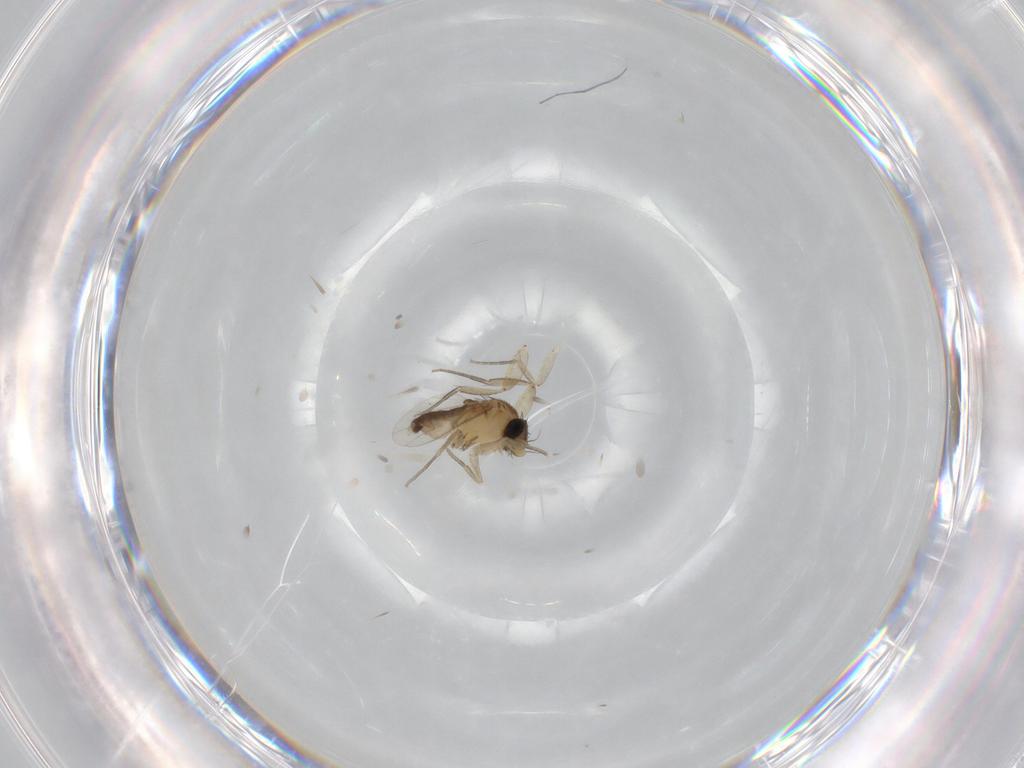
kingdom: Animalia
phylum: Arthropoda
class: Insecta
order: Diptera
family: Phoridae
